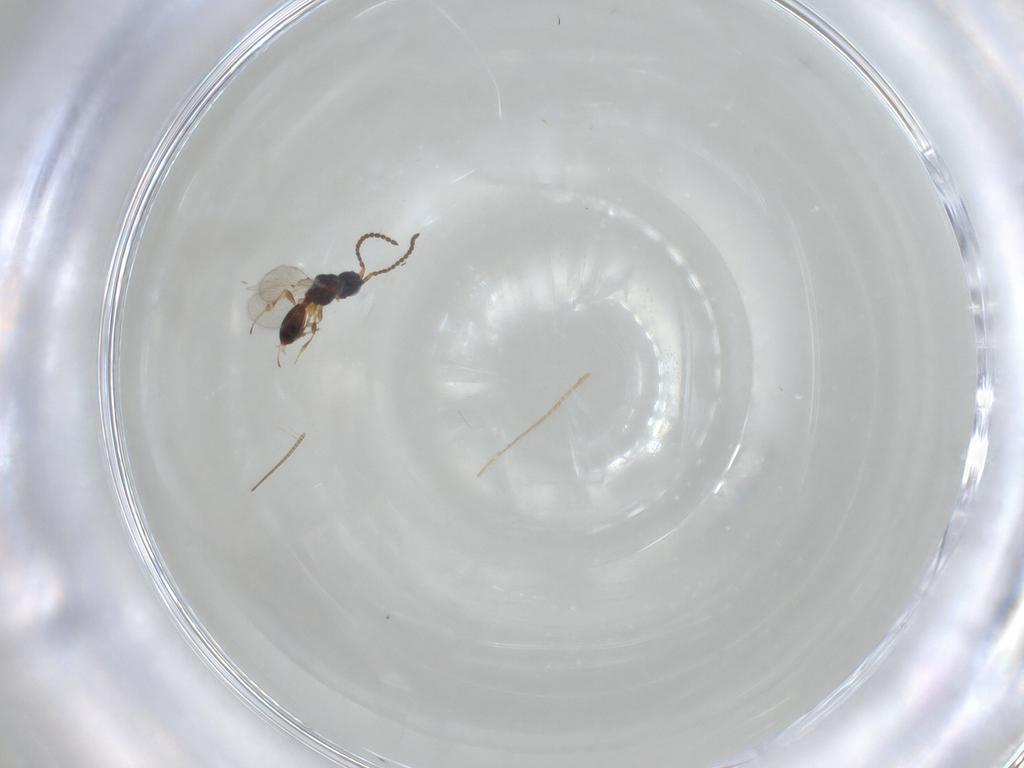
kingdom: Animalia
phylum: Arthropoda
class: Insecta
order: Hymenoptera
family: Diapriidae
